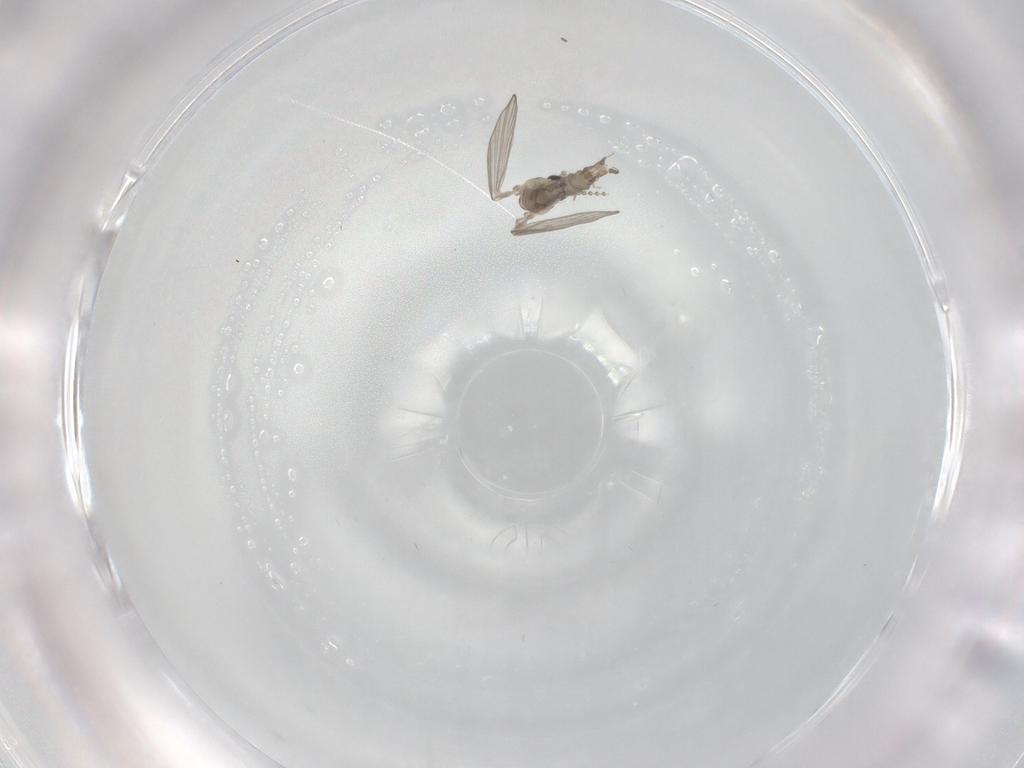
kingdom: Animalia
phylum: Arthropoda
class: Insecta
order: Diptera
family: Psychodidae
